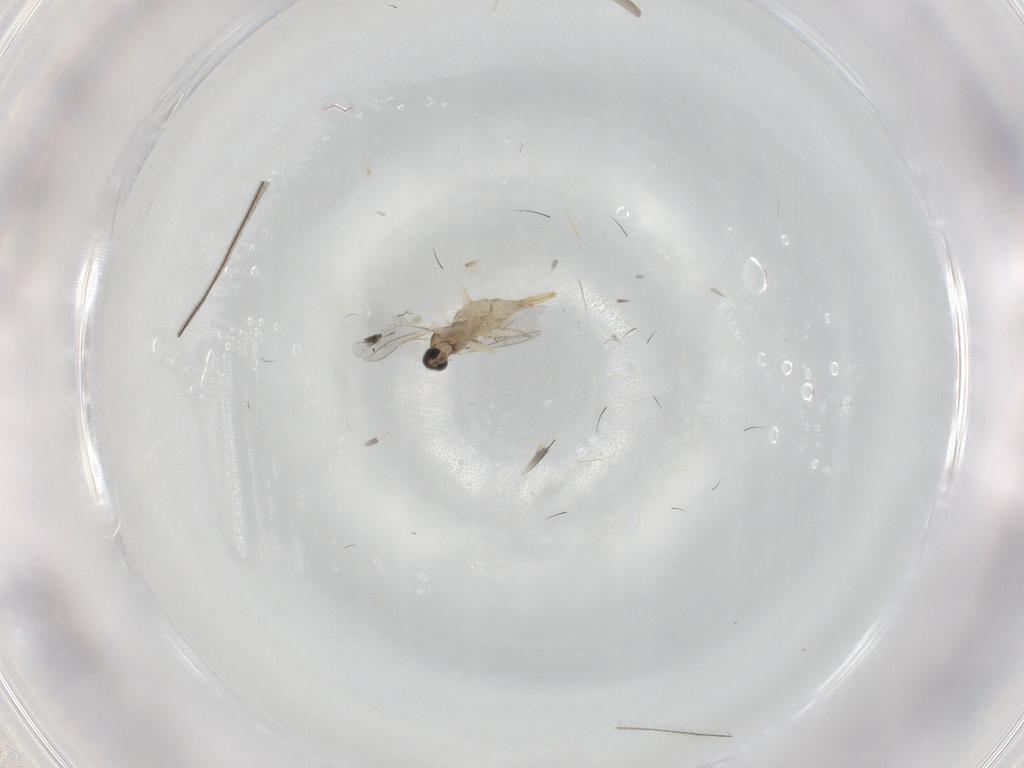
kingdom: Animalia
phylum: Arthropoda
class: Insecta
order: Diptera
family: Cecidomyiidae
